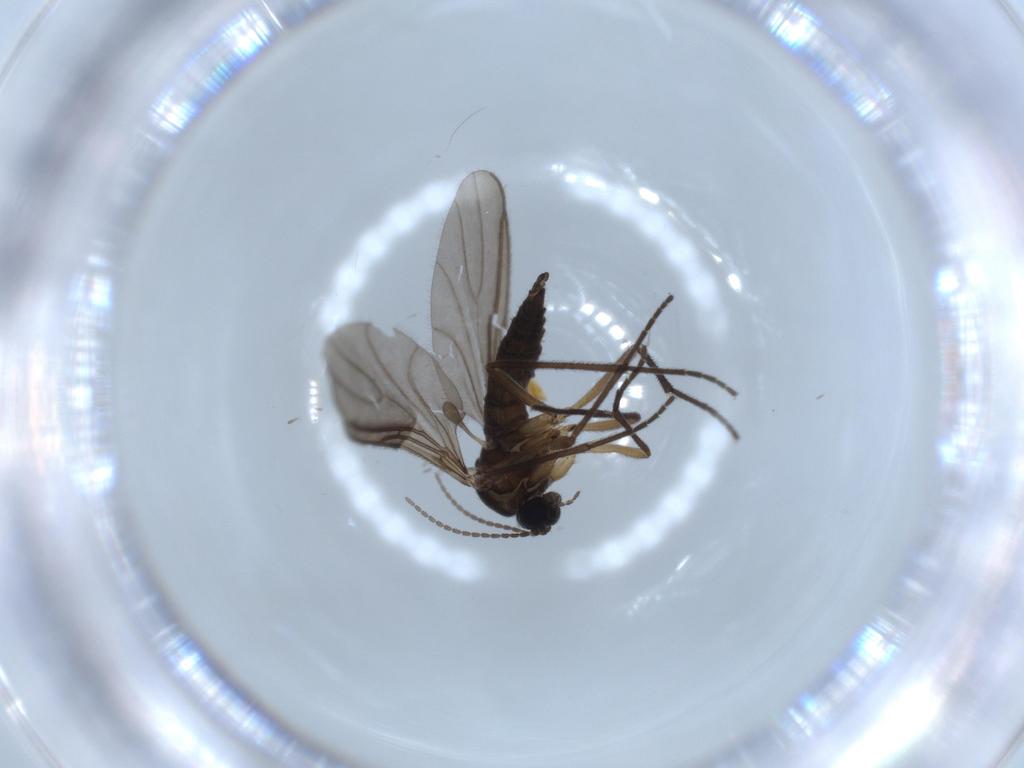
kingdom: Animalia
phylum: Arthropoda
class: Insecta
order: Diptera
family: Sciaridae
